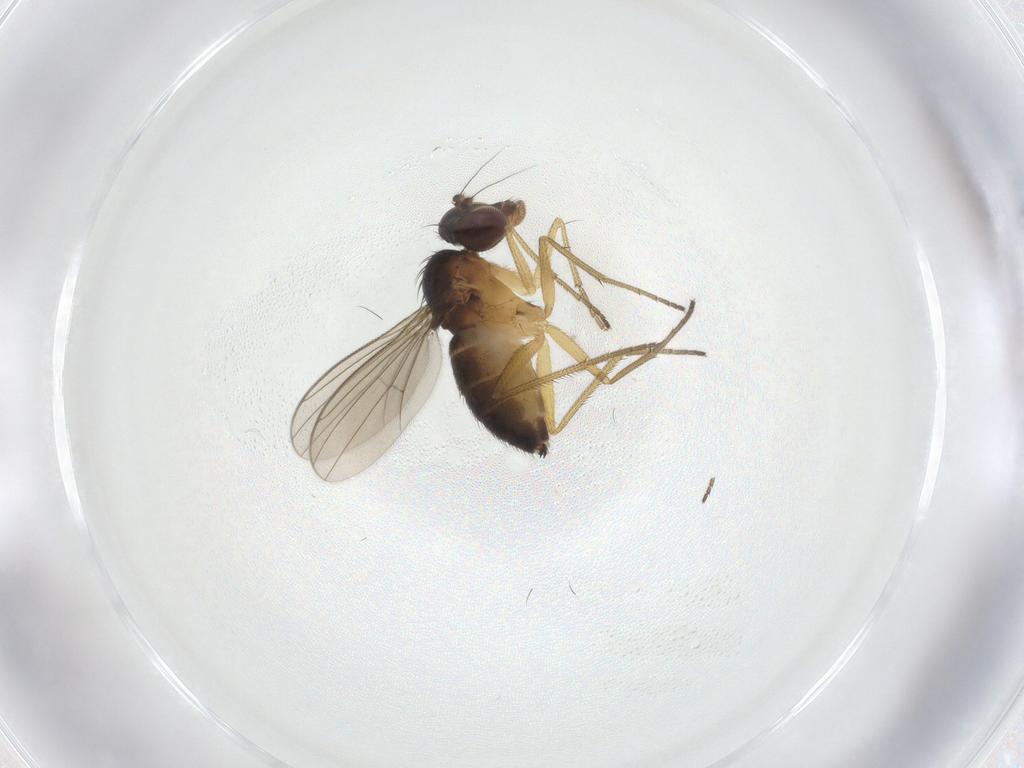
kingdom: Animalia
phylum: Arthropoda
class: Insecta
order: Diptera
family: Dolichopodidae
